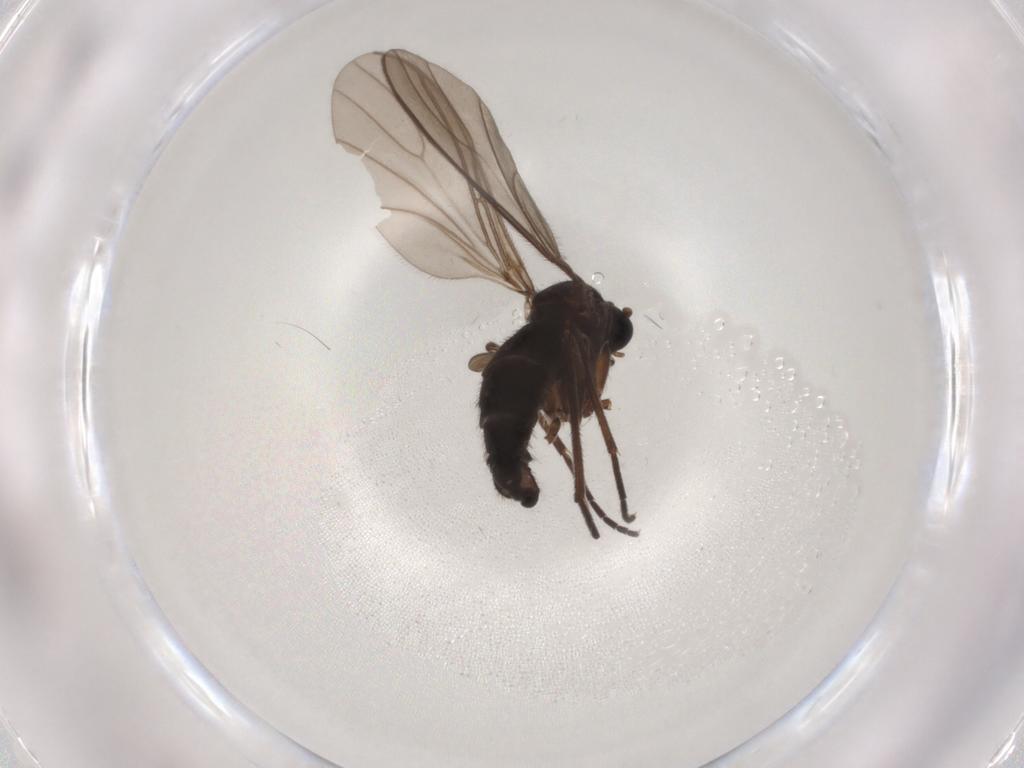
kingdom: Animalia
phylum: Arthropoda
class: Insecta
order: Diptera
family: Sciaridae
